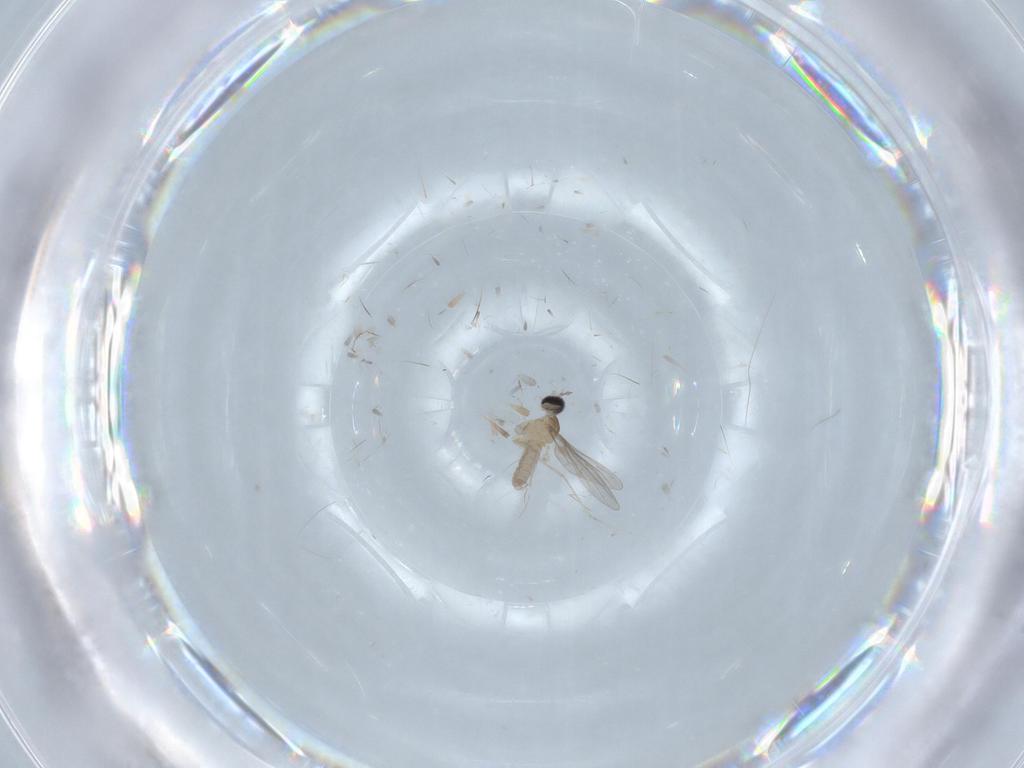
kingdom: Animalia
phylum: Arthropoda
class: Insecta
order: Diptera
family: Cecidomyiidae
